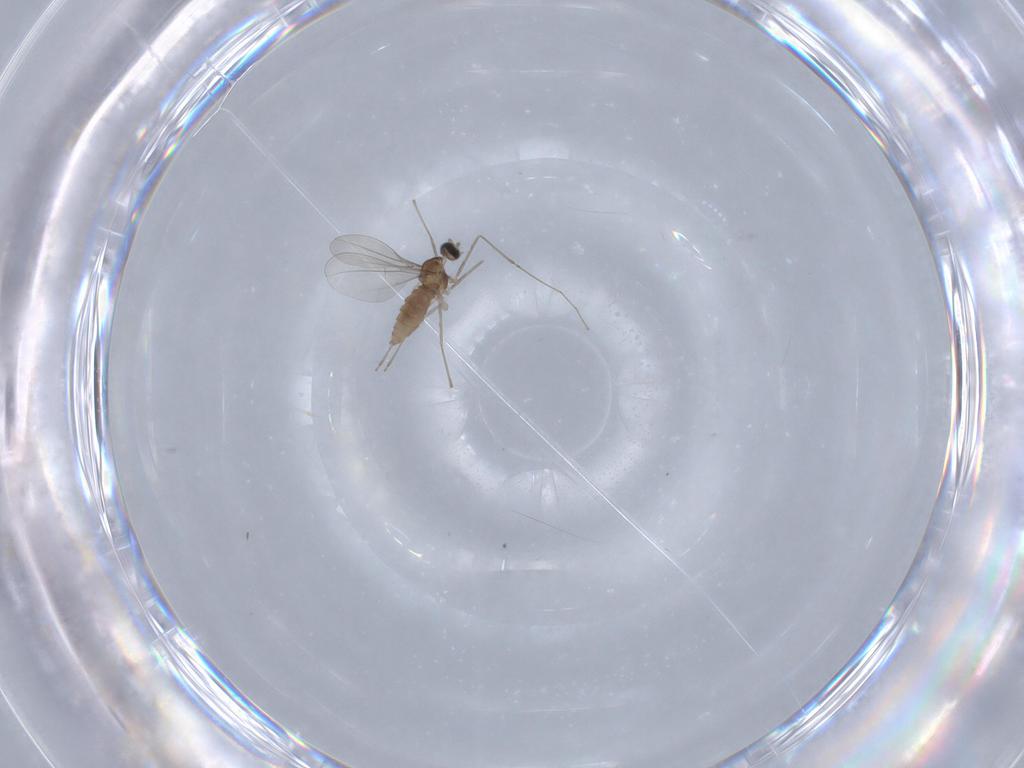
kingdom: Animalia
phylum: Arthropoda
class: Insecta
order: Diptera
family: Cecidomyiidae
